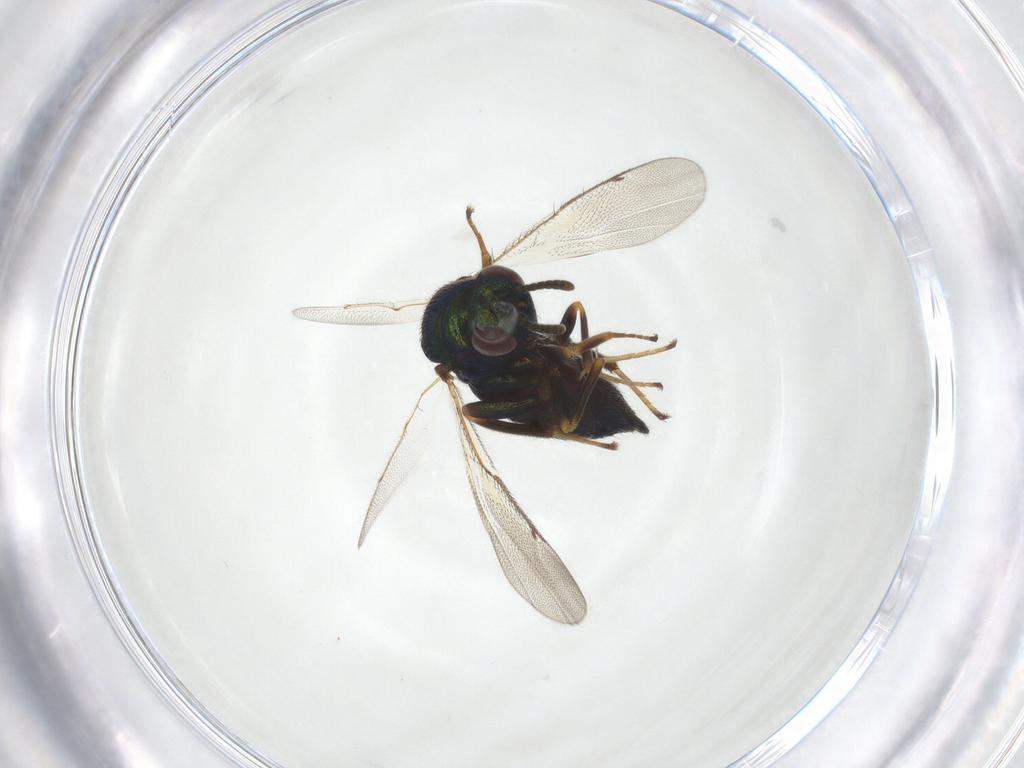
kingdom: Animalia
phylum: Arthropoda
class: Insecta
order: Hymenoptera
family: Ormyridae
